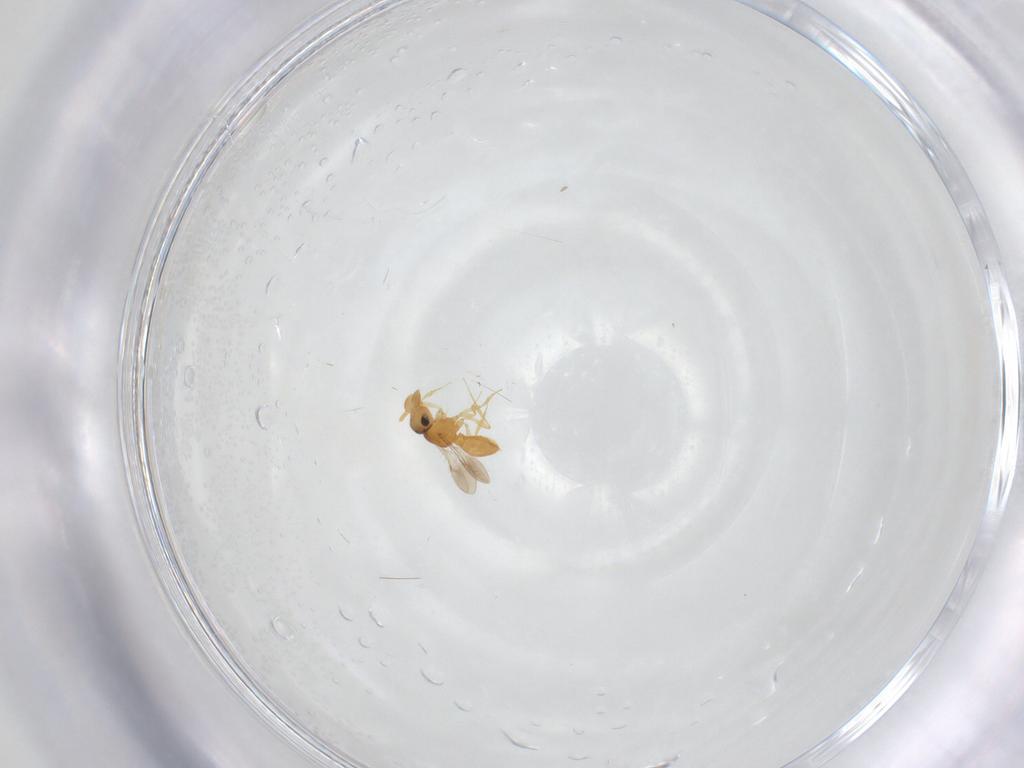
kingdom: Animalia
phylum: Arthropoda
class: Insecta
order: Hymenoptera
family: Scelionidae
